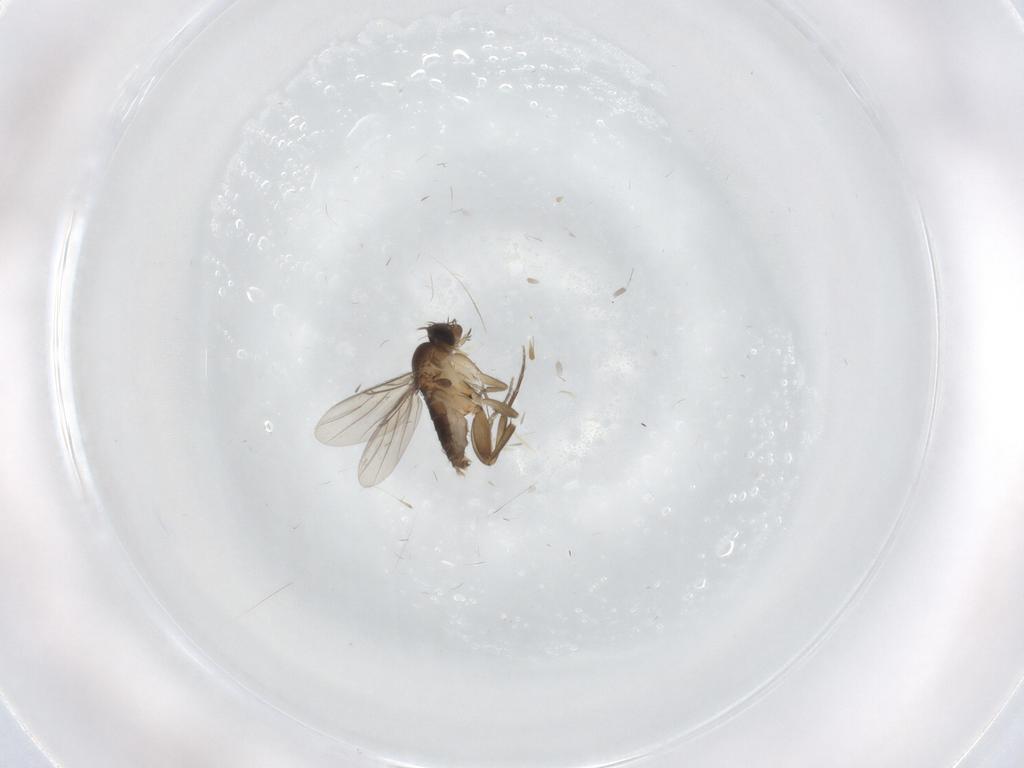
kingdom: Animalia
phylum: Arthropoda
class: Insecta
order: Diptera
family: Phoridae
